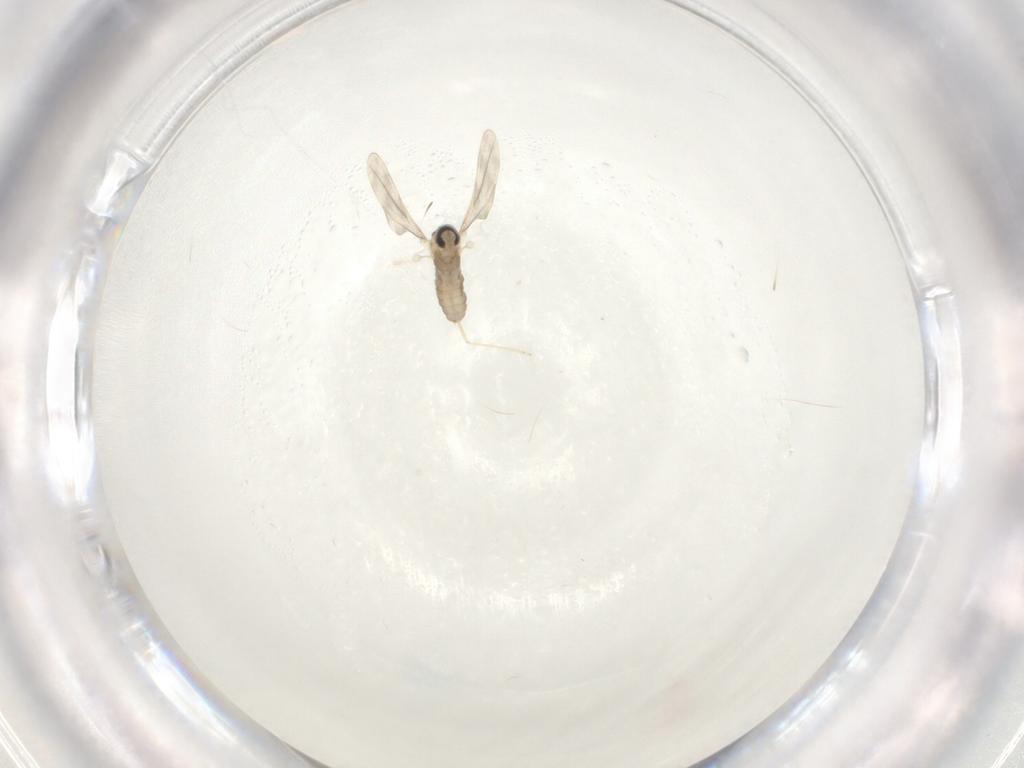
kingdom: Animalia
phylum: Arthropoda
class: Insecta
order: Diptera
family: Cecidomyiidae
